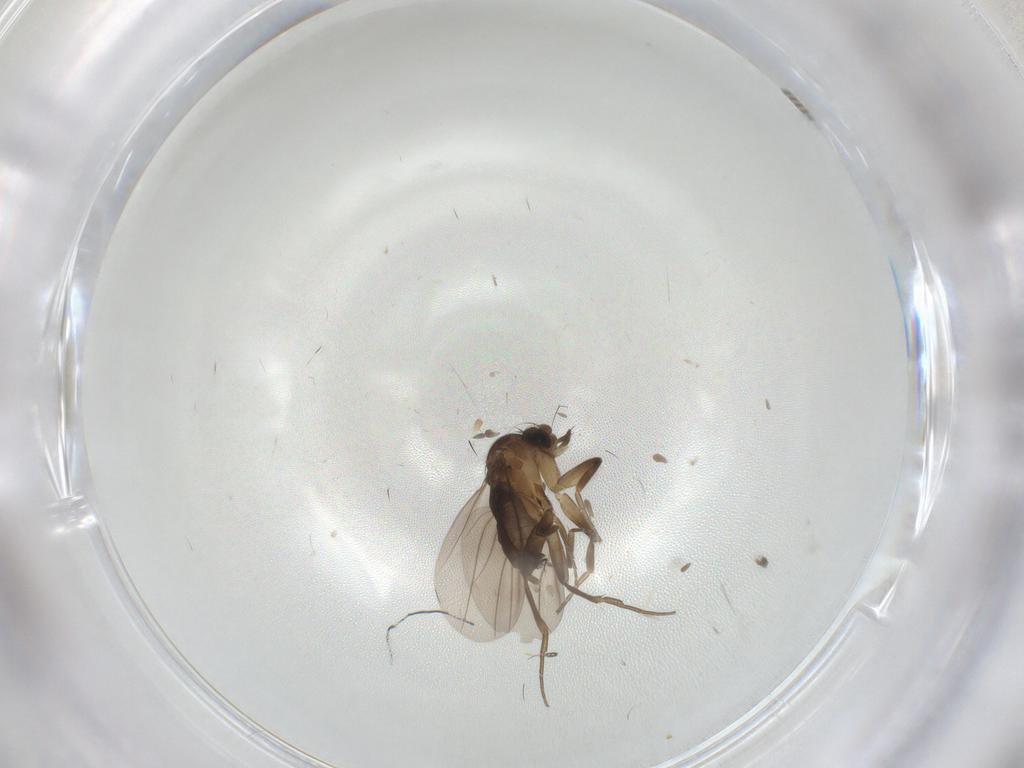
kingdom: Animalia
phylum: Arthropoda
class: Insecta
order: Diptera
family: Phoridae
